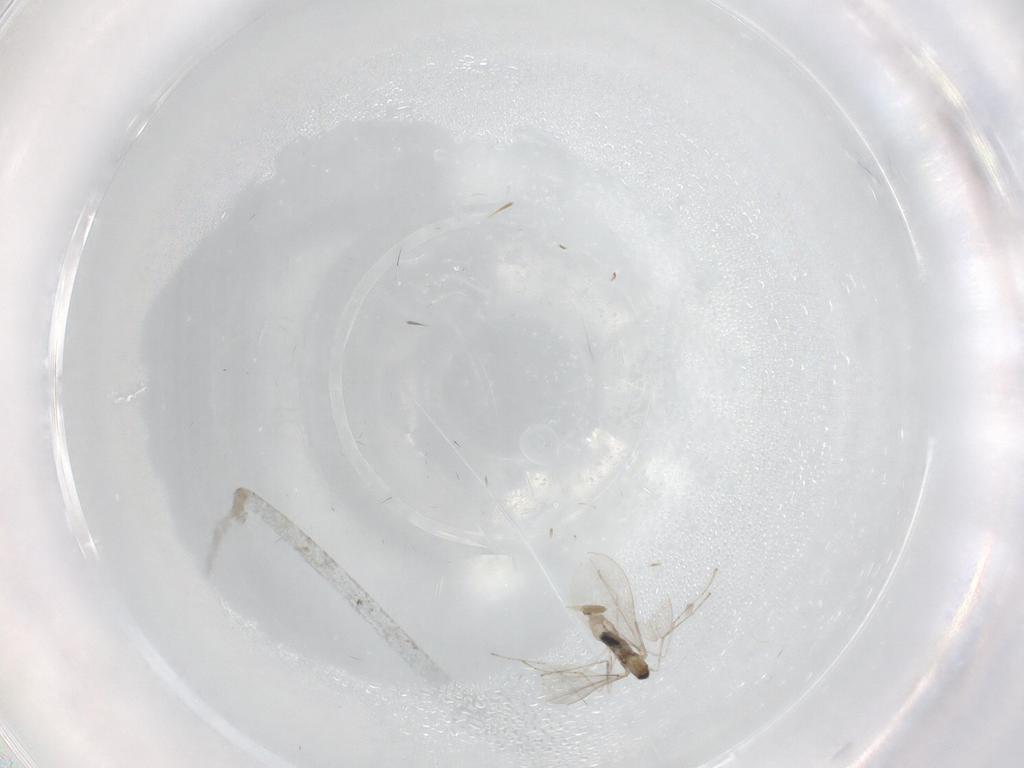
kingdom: Animalia
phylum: Arthropoda
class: Insecta
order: Diptera
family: Cecidomyiidae
